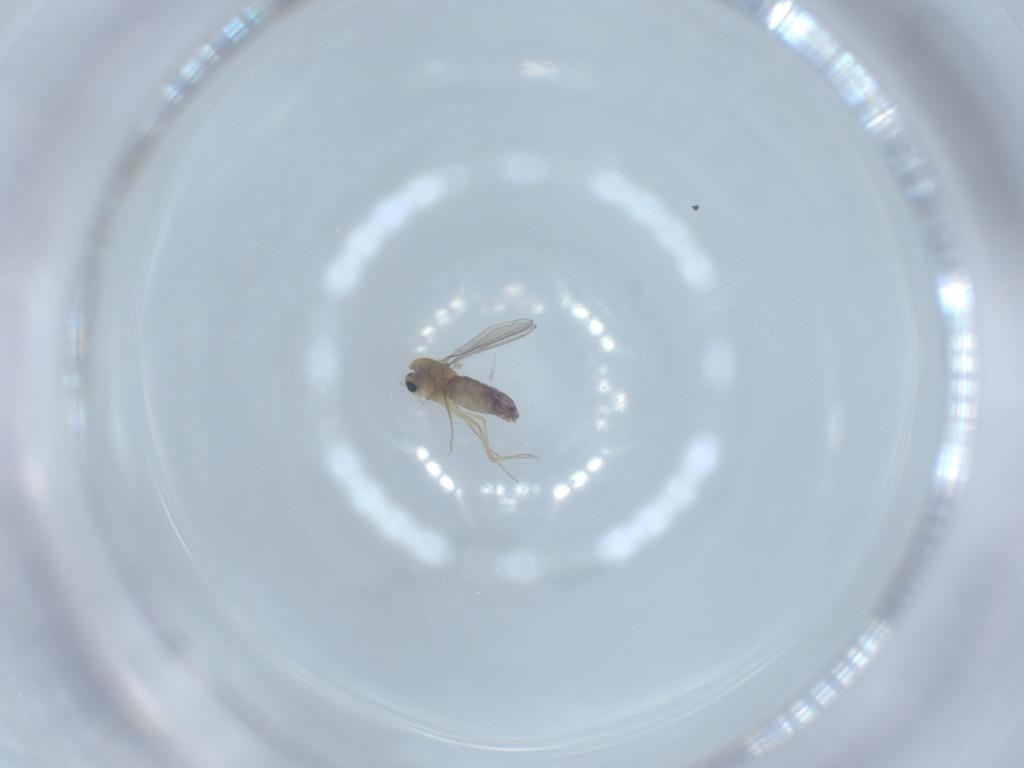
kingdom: Animalia
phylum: Arthropoda
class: Insecta
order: Diptera
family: Chironomidae
